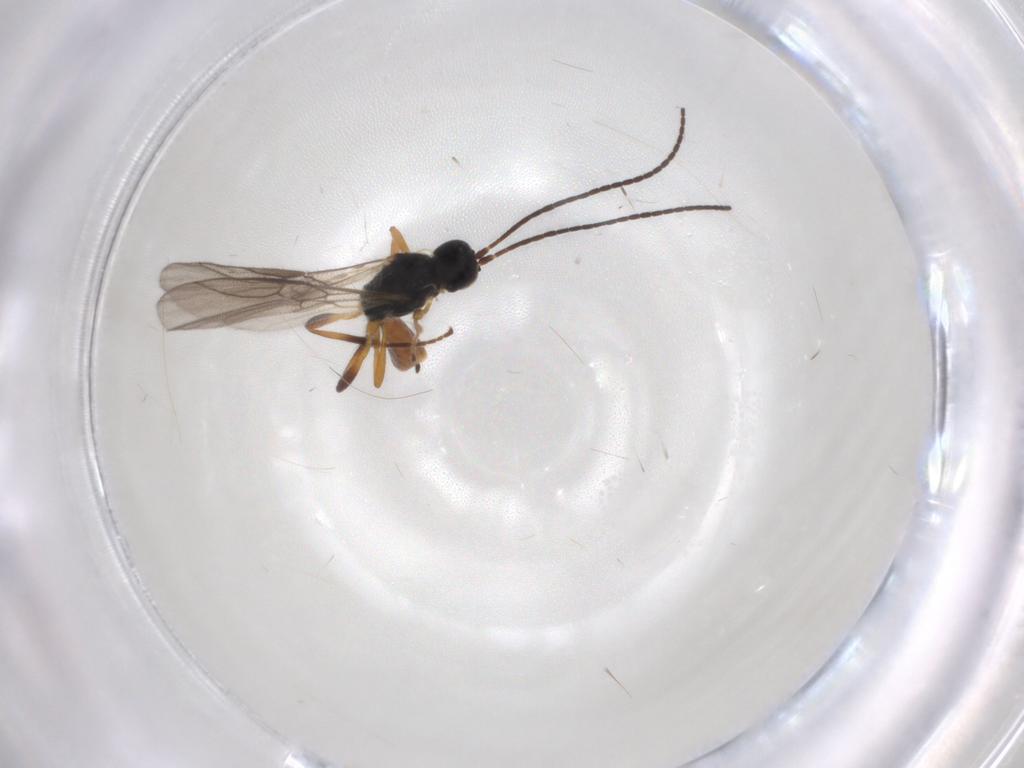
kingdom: Animalia
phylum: Arthropoda
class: Insecta
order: Hymenoptera
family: Braconidae
